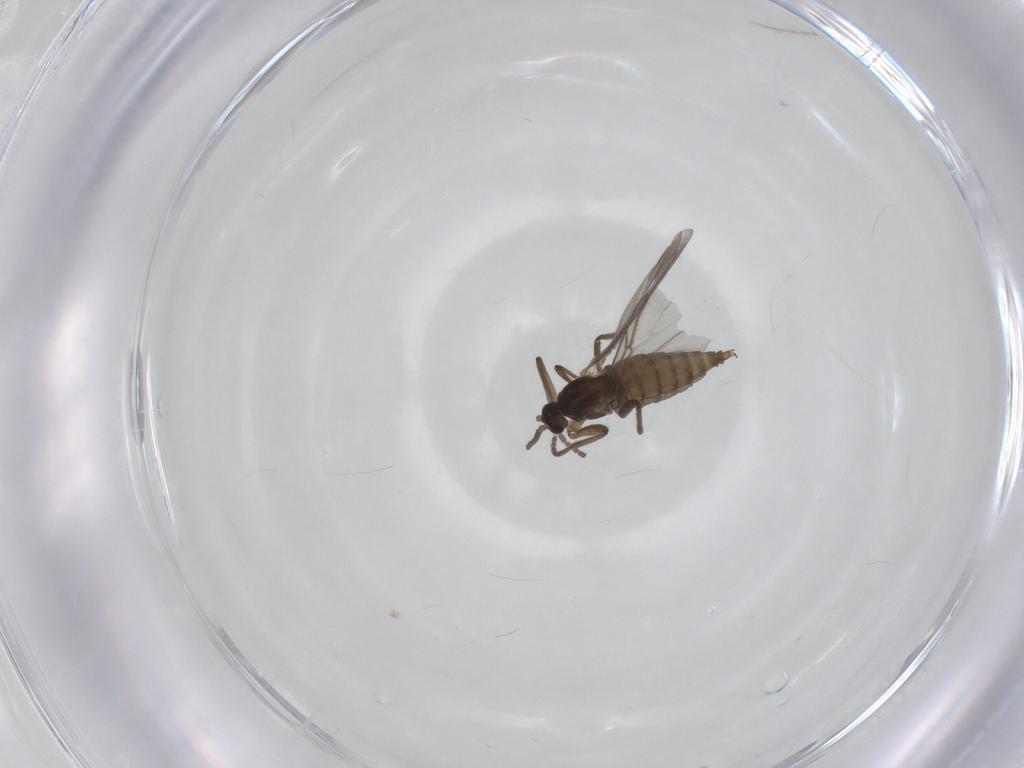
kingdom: Animalia
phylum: Arthropoda
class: Insecta
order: Diptera
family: Cecidomyiidae
